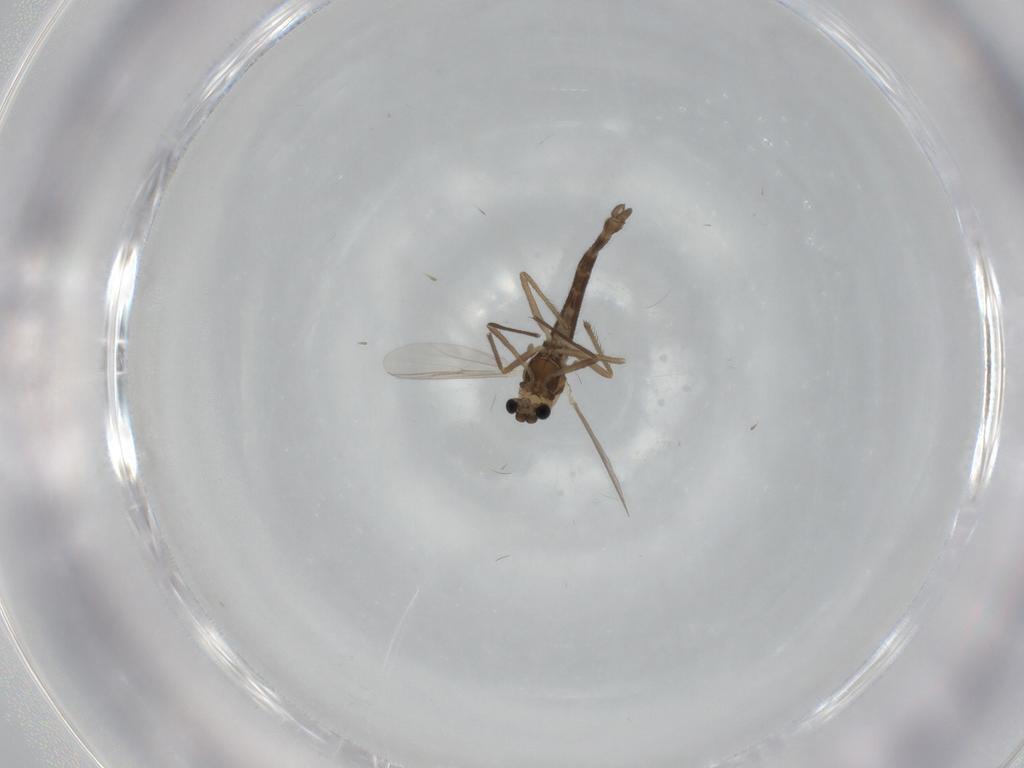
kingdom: Animalia
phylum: Arthropoda
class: Insecta
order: Diptera
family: Chironomidae
